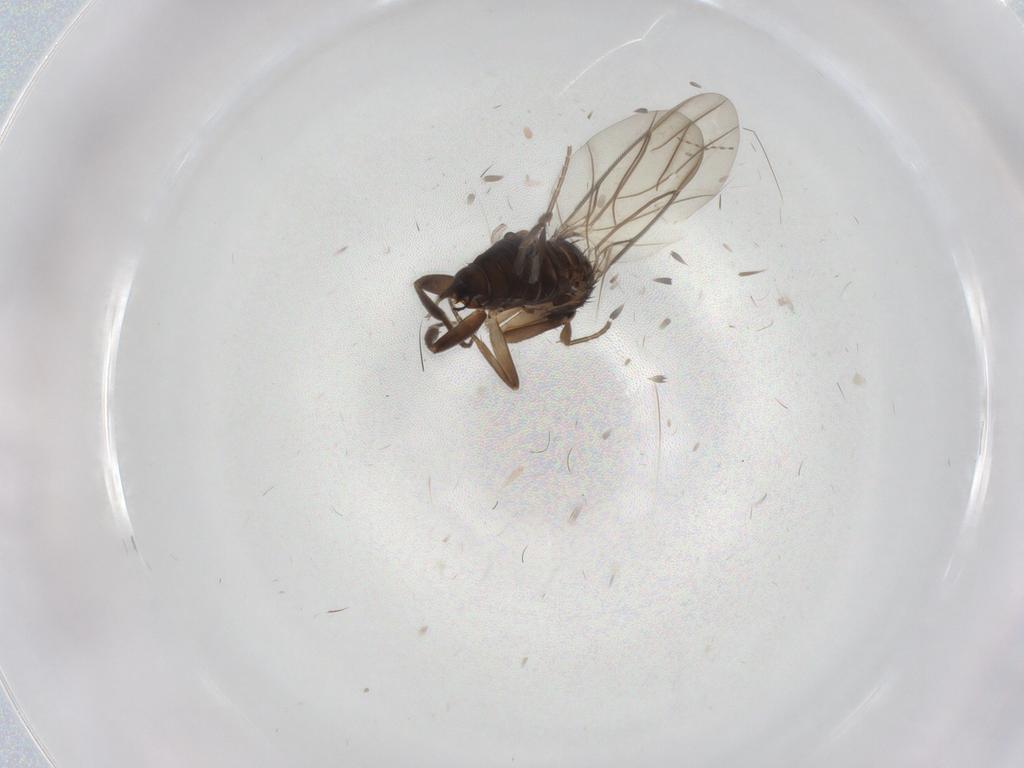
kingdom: Animalia
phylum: Arthropoda
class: Insecta
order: Diptera
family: Hybotidae
